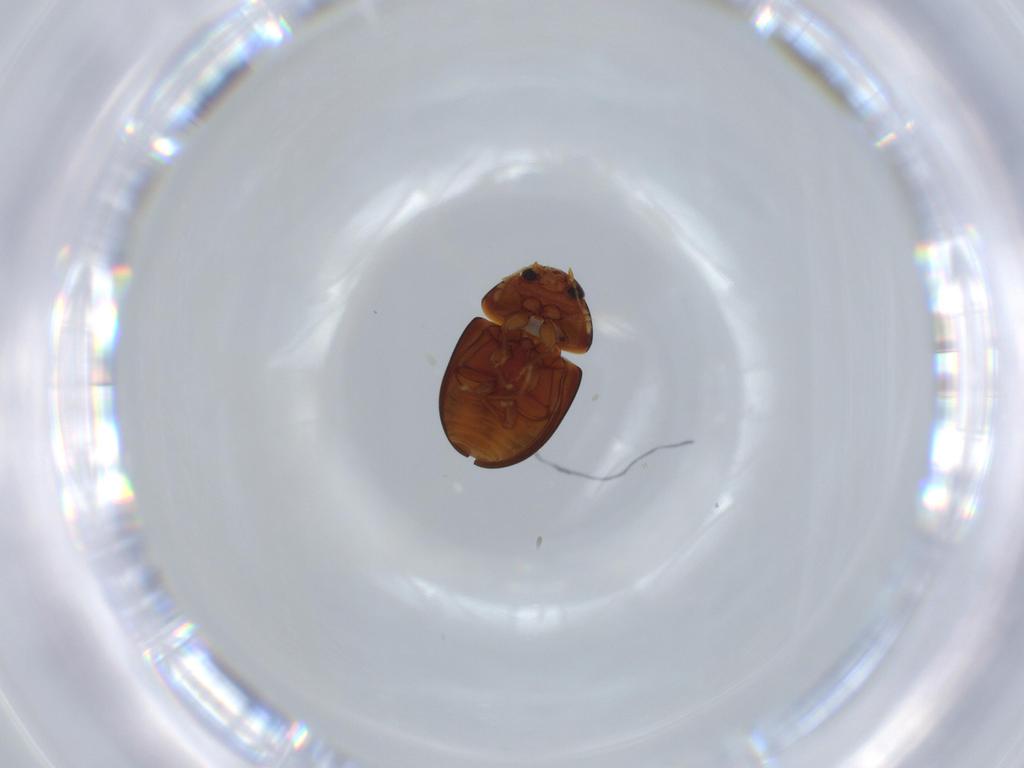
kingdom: Animalia
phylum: Arthropoda
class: Insecta
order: Coleoptera
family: Phalacridae
